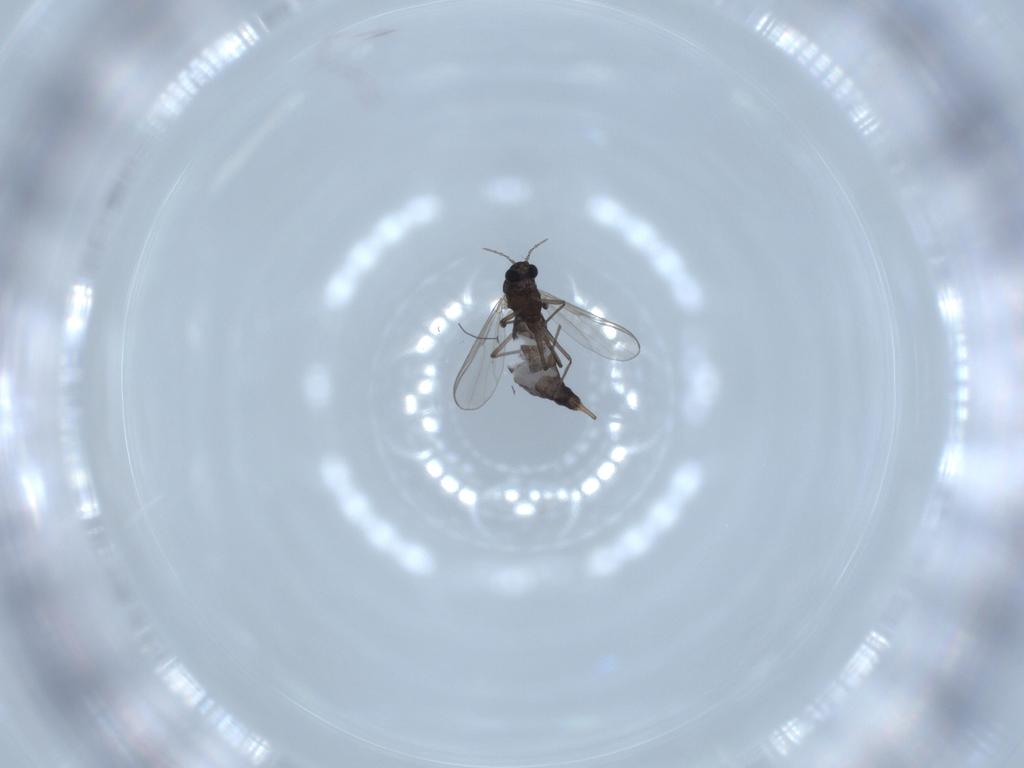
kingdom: Animalia
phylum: Arthropoda
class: Insecta
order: Diptera
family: Chironomidae
